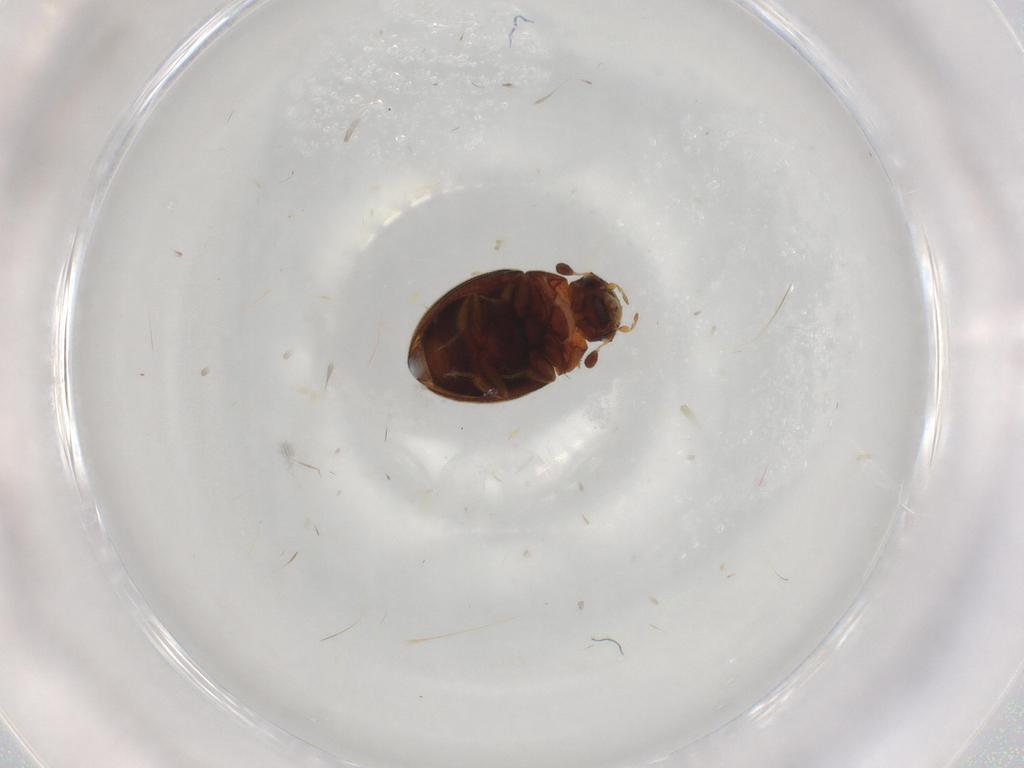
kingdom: Animalia
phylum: Arthropoda
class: Insecta
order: Coleoptera
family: Hydrophilidae
